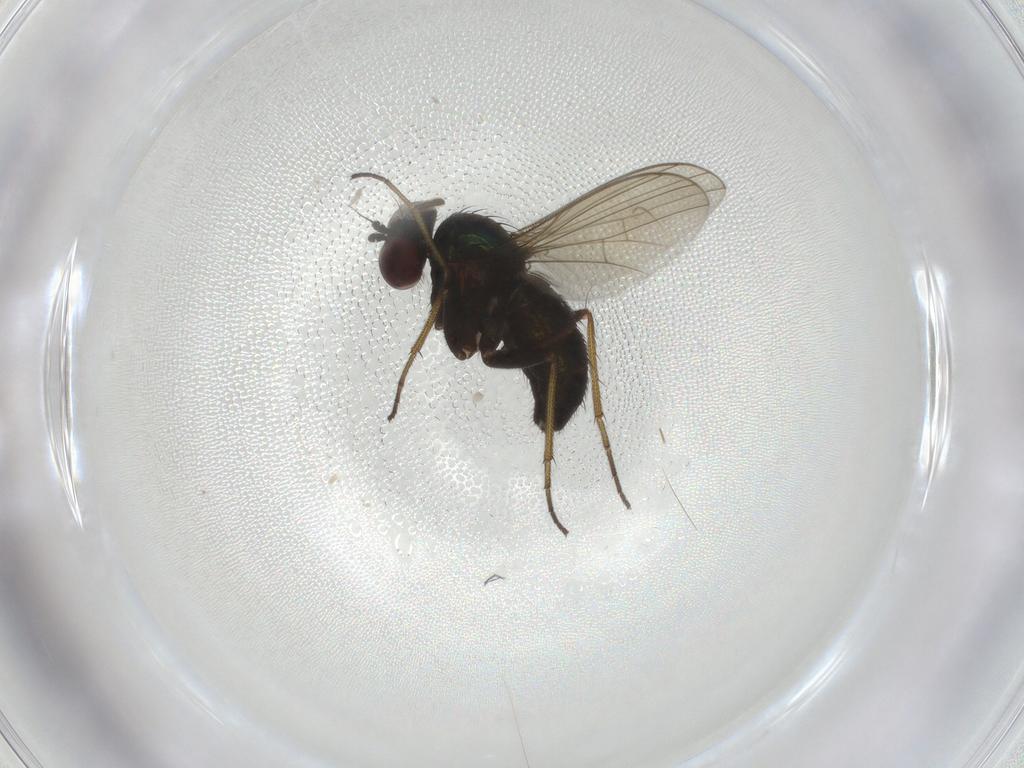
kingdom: Animalia
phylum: Arthropoda
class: Insecta
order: Diptera
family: Dolichopodidae
